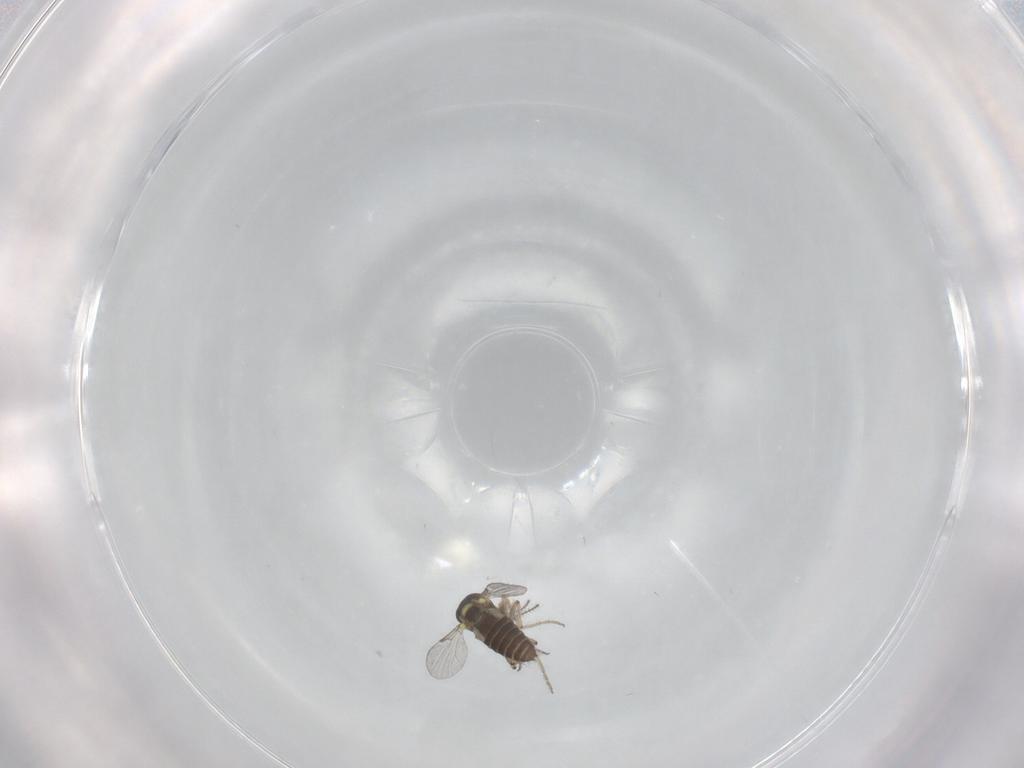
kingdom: Animalia
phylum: Arthropoda
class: Insecta
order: Diptera
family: Ceratopogonidae
